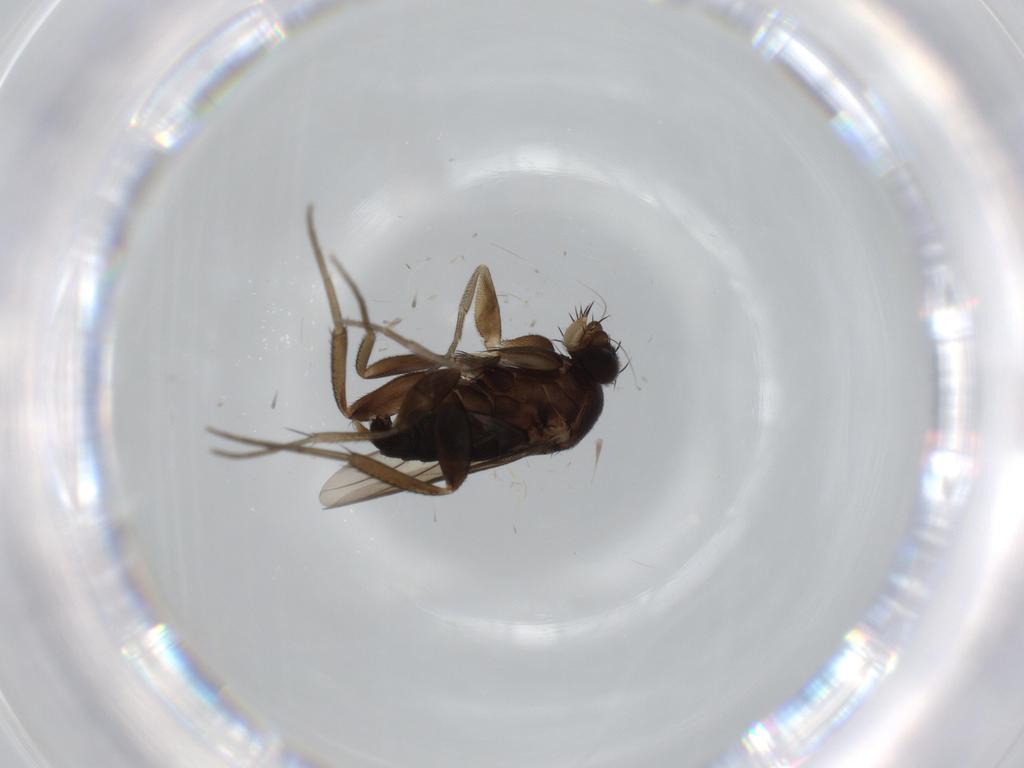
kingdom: Animalia
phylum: Arthropoda
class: Insecta
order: Diptera
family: Phoridae
